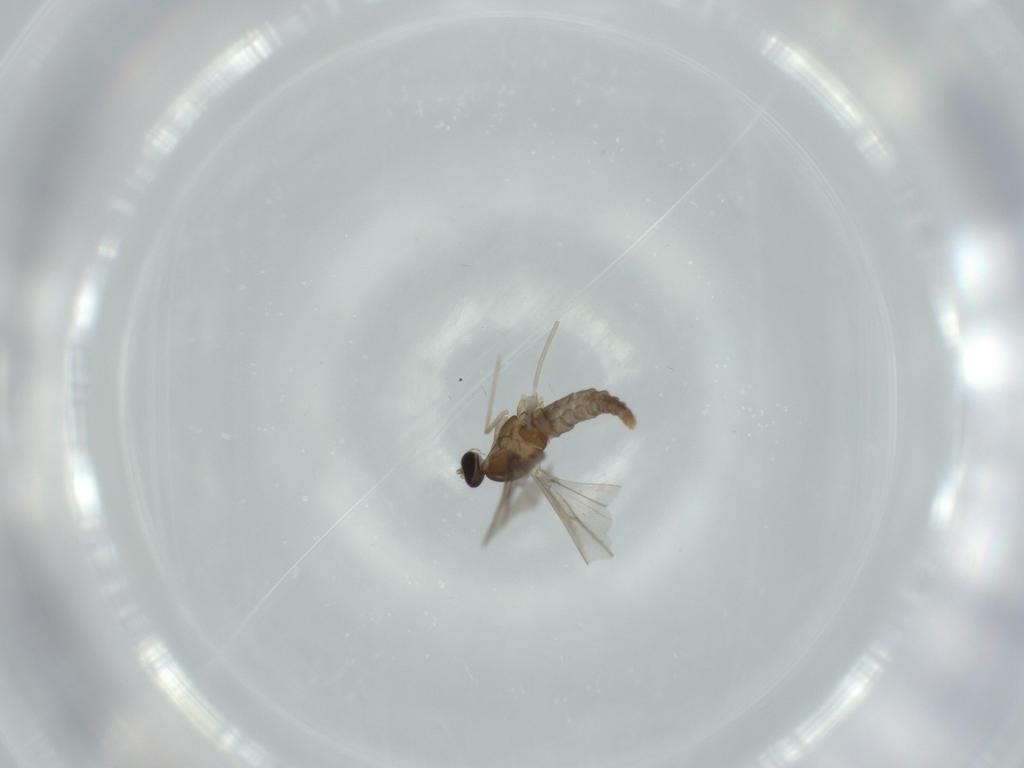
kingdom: Animalia
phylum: Arthropoda
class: Insecta
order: Diptera
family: Cecidomyiidae
